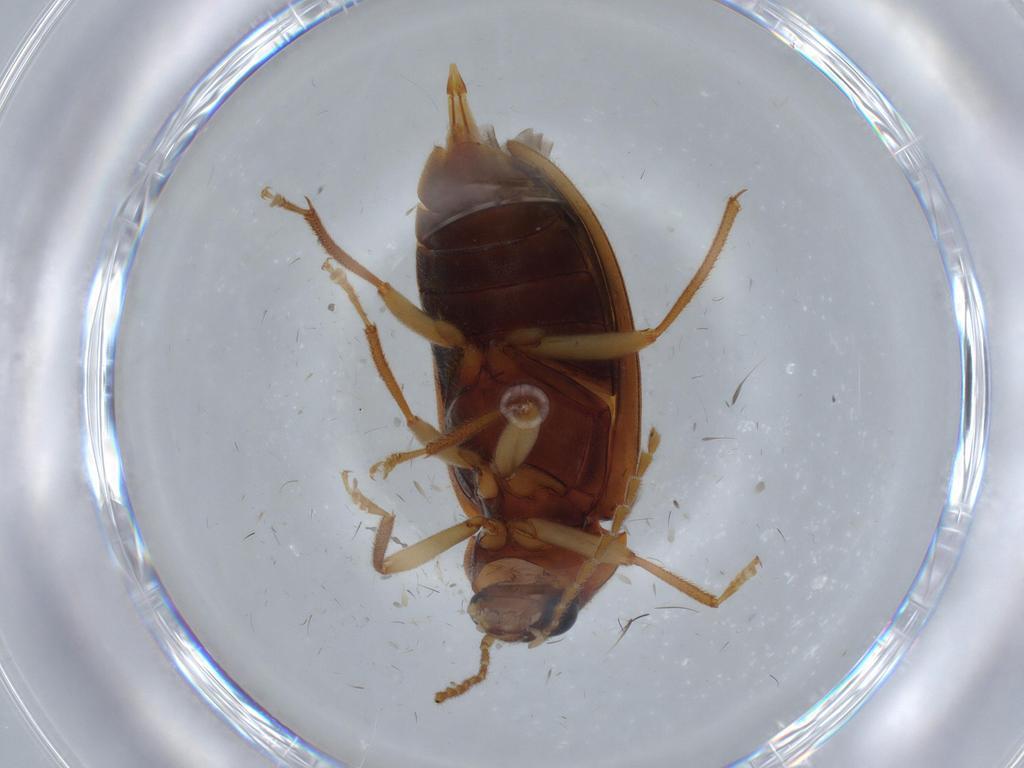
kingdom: Animalia
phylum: Arthropoda
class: Insecta
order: Coleoptera
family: Ptilodactylidae
